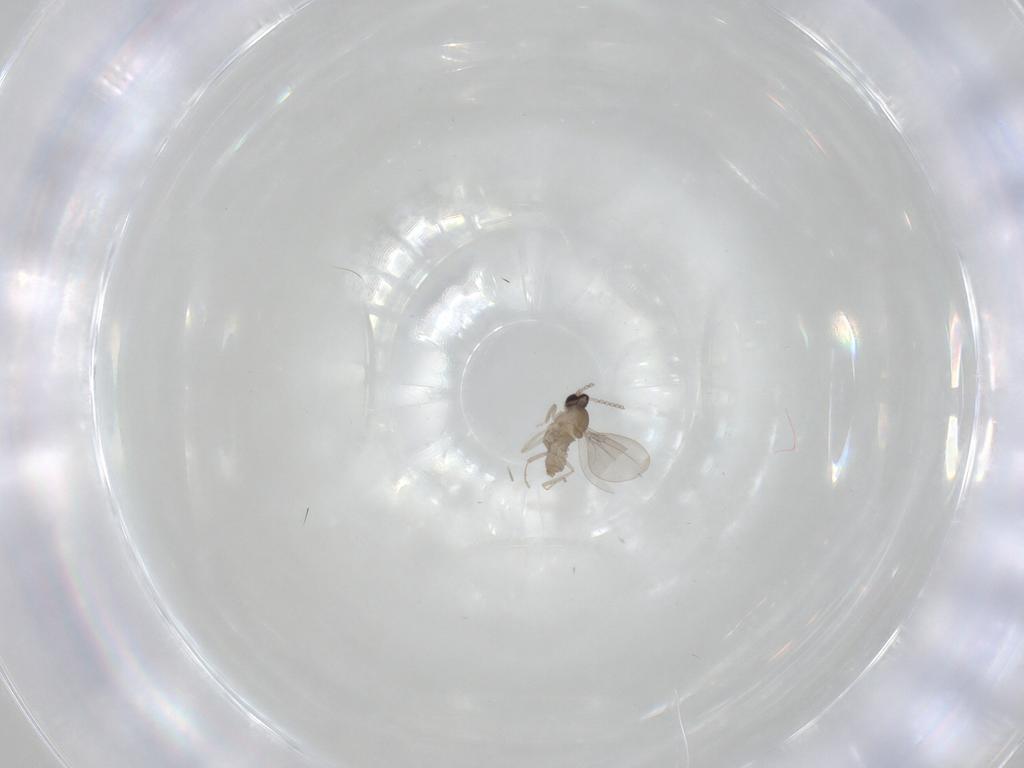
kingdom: Animalia
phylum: Arthropoda
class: Insecta
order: Diptera
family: Cecidomyiidae
